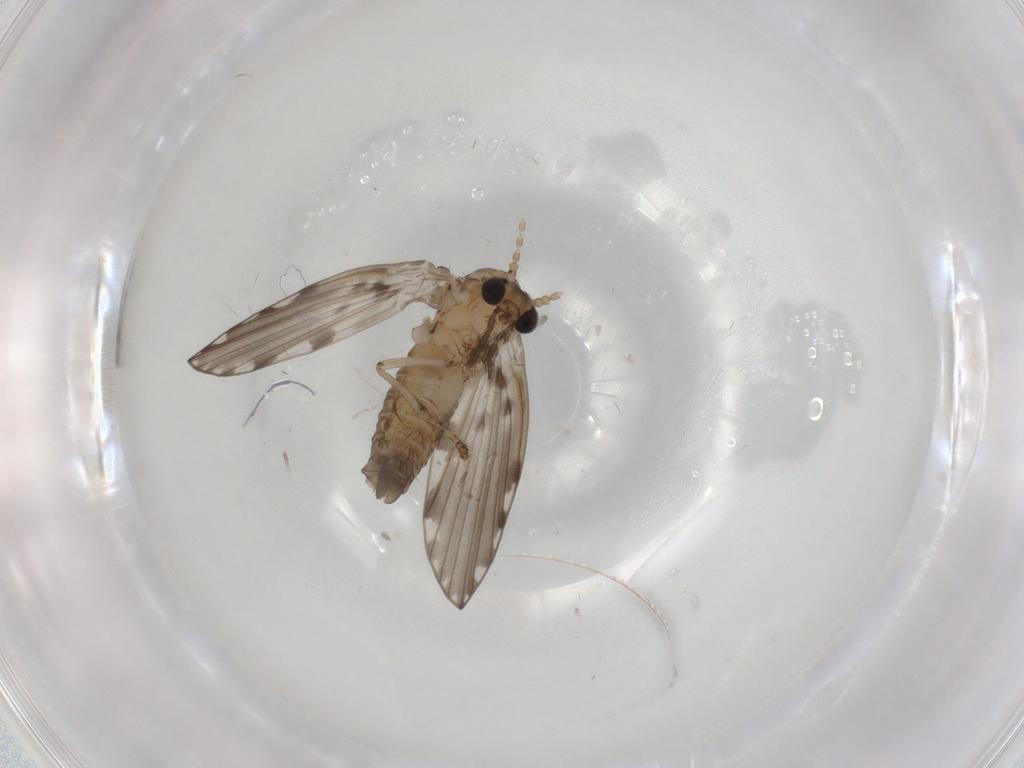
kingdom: Animalia
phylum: Arthropoda
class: Insecta
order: Diptera
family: Psychodidae
